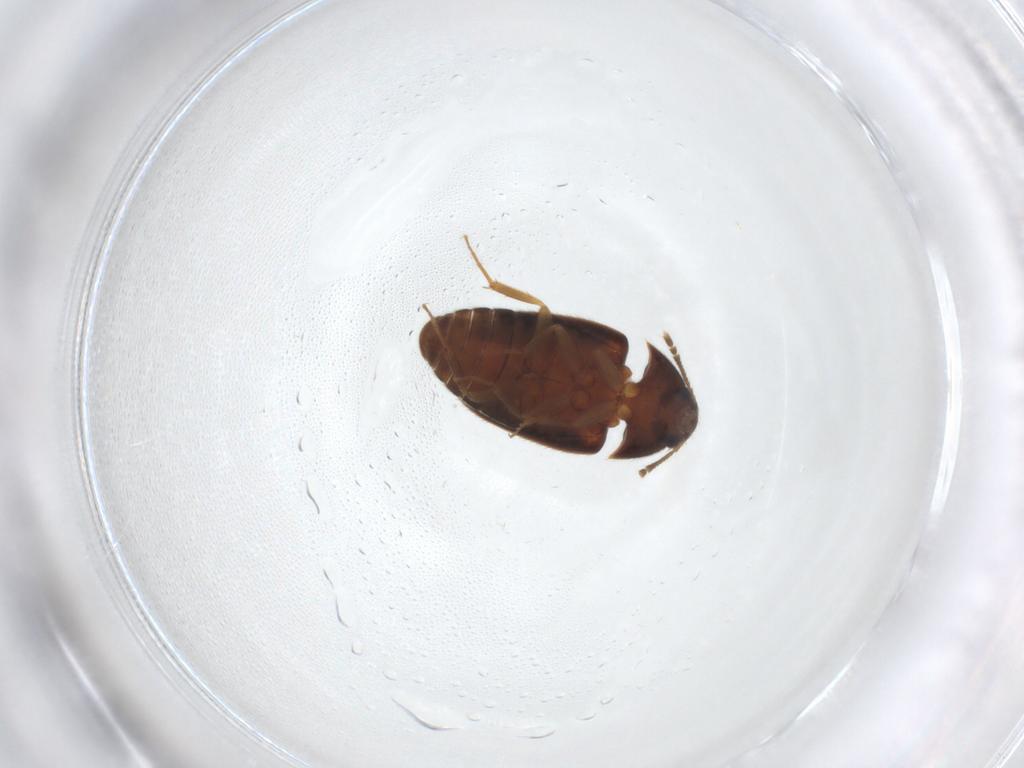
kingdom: Animalia
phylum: Arthropoda
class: Insecta
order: Coleoptera
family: Mycetophagidae
